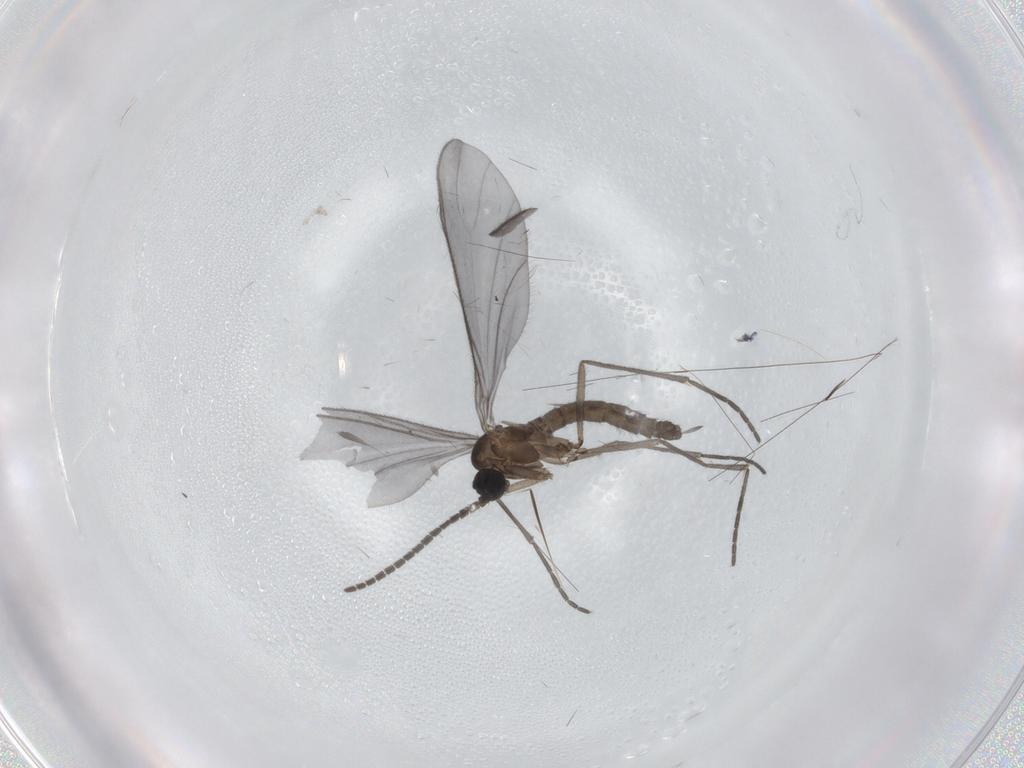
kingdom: Animalia
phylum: Arthropoda
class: Insecta
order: Diptera
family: Sciaridae
